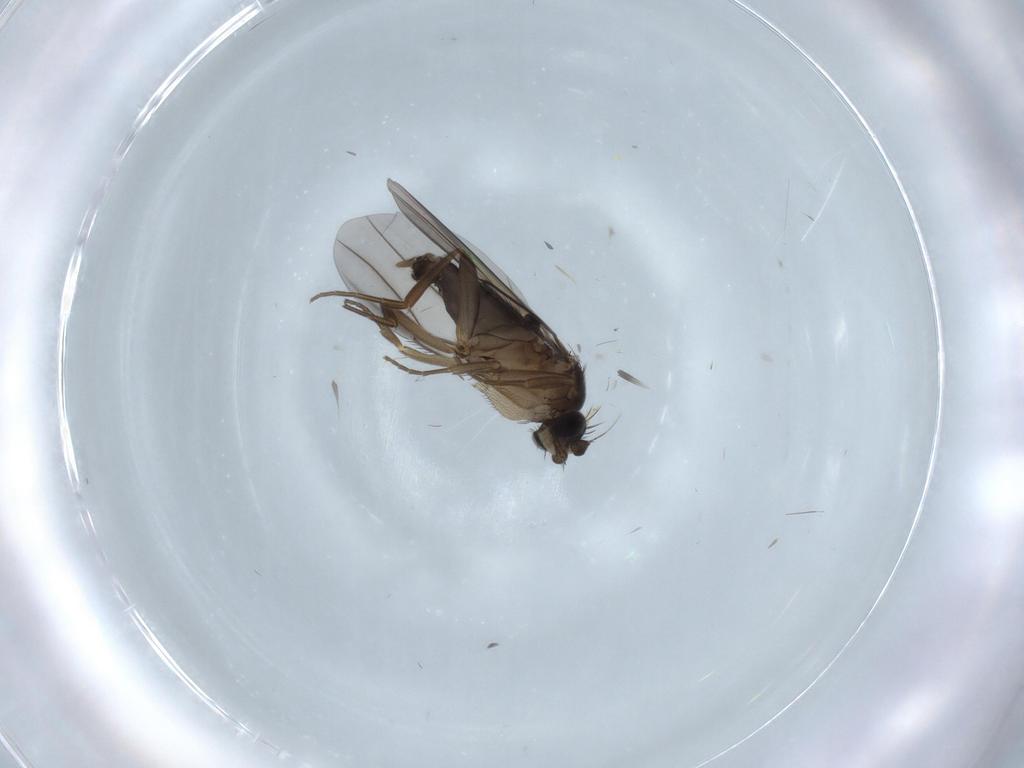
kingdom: Animalia
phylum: Arthropoda
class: Insecta
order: Diptera
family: Phoridae
